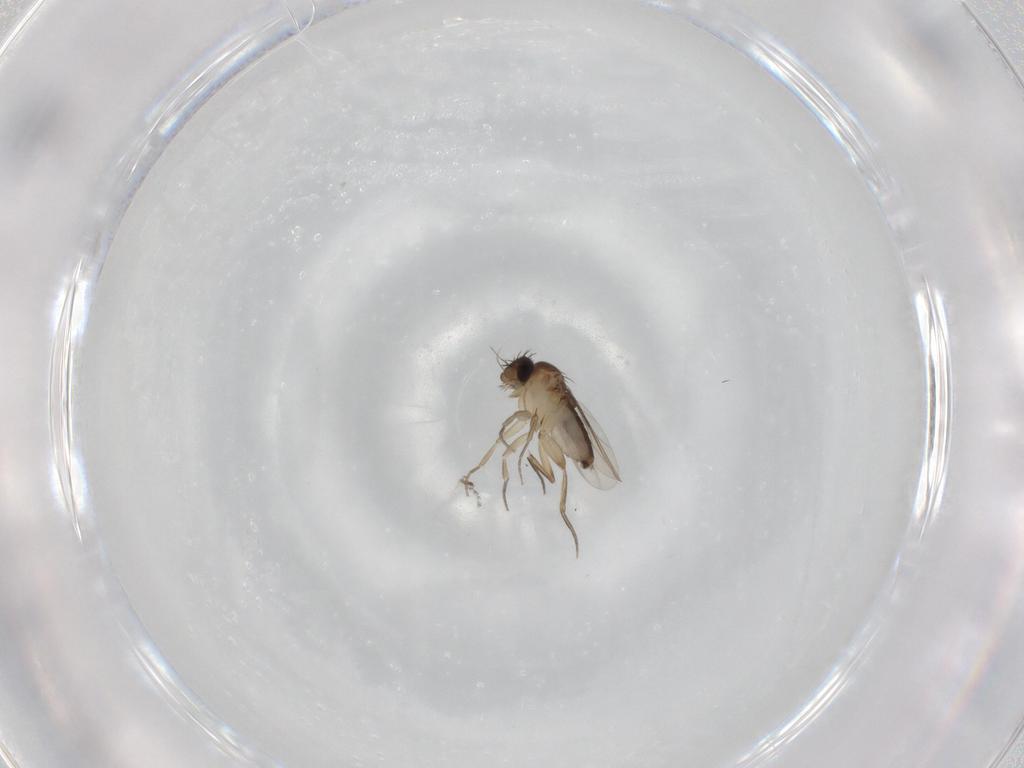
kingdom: Animalia
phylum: Arthropoda
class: Insecta
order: Diptera
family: Phoridae
